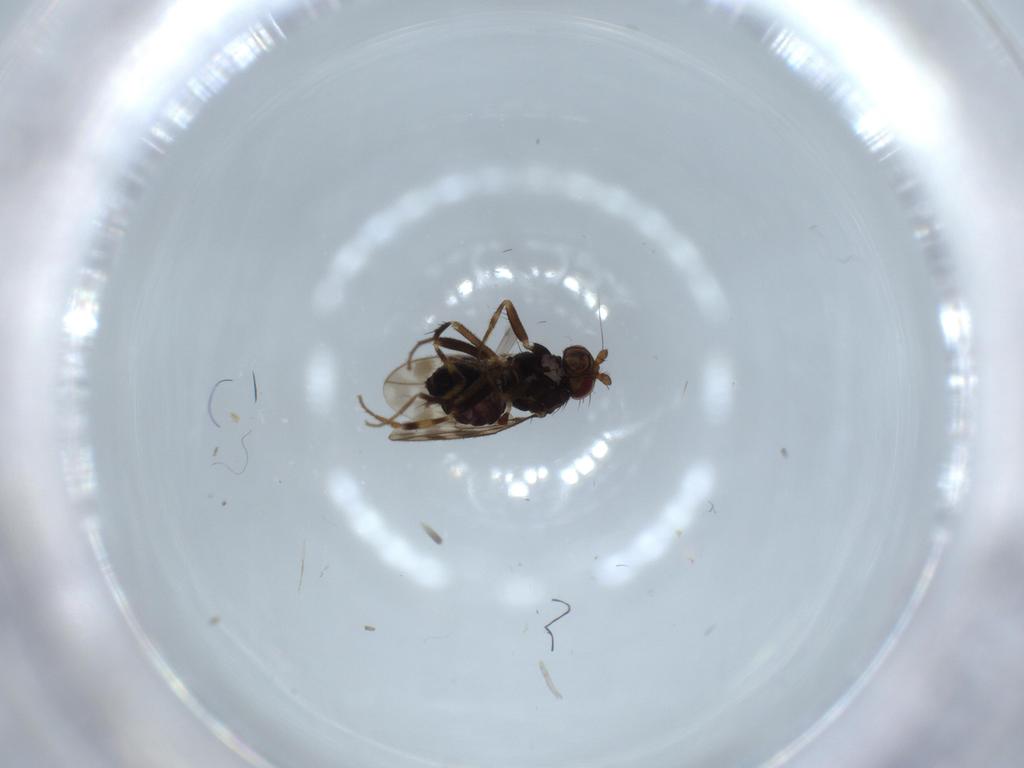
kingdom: Animalia
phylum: Arthropoda
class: Insecta
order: Diptera
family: Sphaeroceridae
